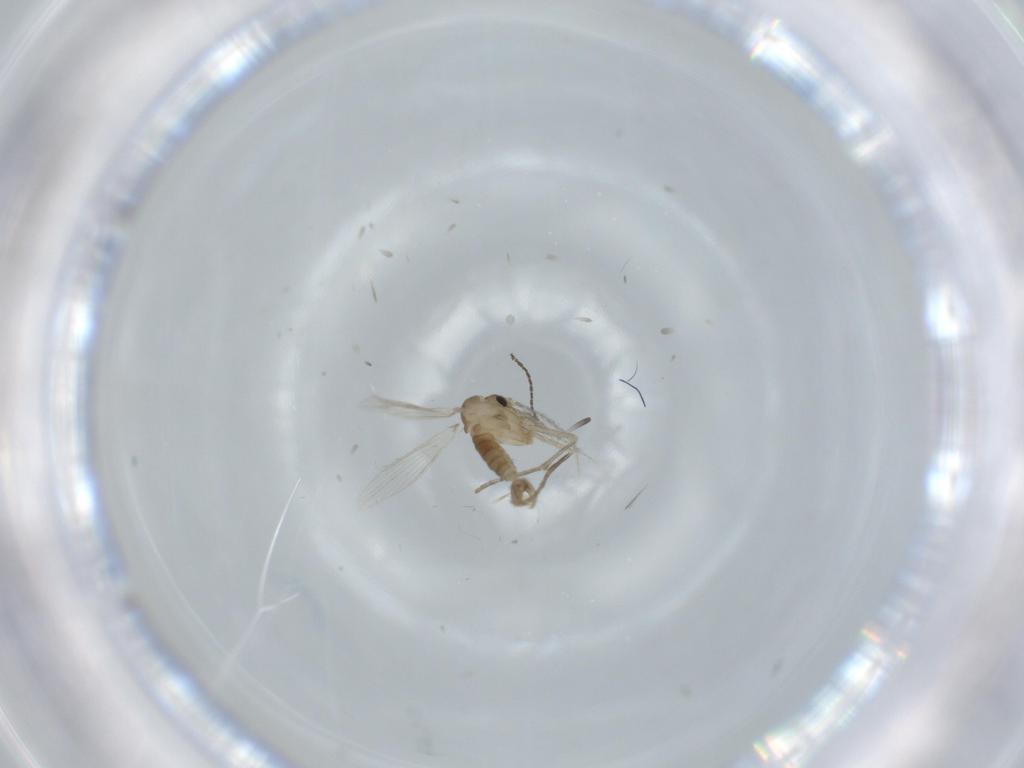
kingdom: Animalia
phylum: Arthropoda
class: Insecta
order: Diptera
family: Cecidomyiidae
